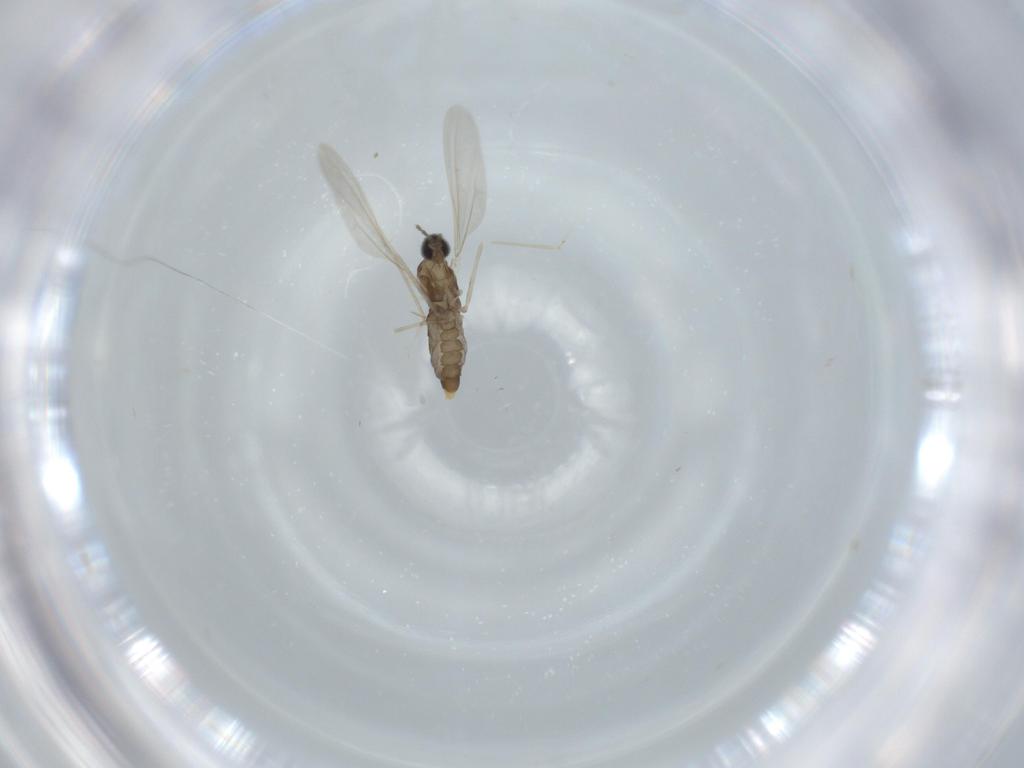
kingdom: Animalia
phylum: Arthropoda
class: Insecta
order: Diptera
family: Cecidomyiidae
